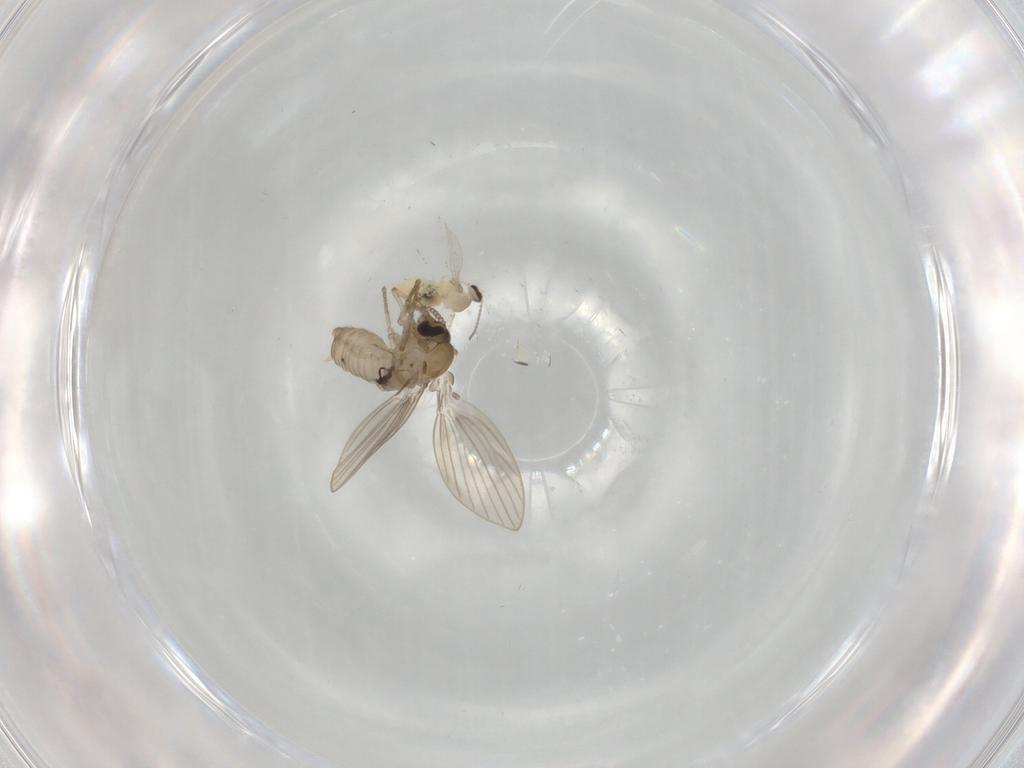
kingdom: Animalia
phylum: Arthropoda
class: Insecta
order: Diptera
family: Psychodidae
